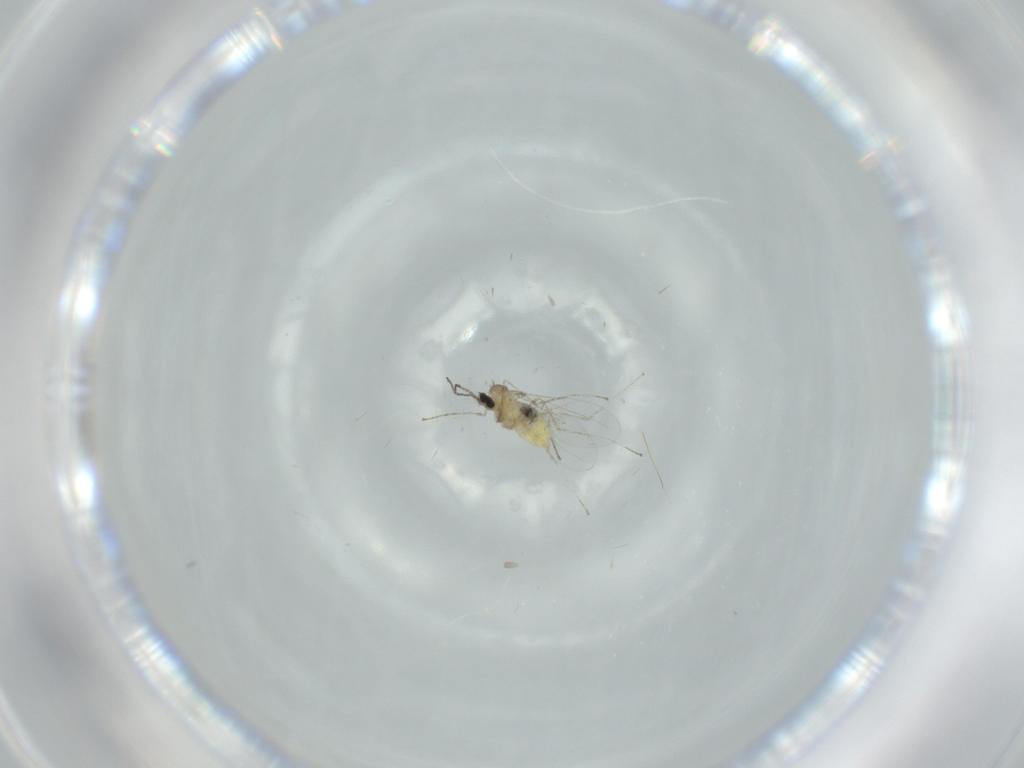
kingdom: Animalia
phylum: Arthropoda
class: Insecta
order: Diptera
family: Cecidomyiidae
